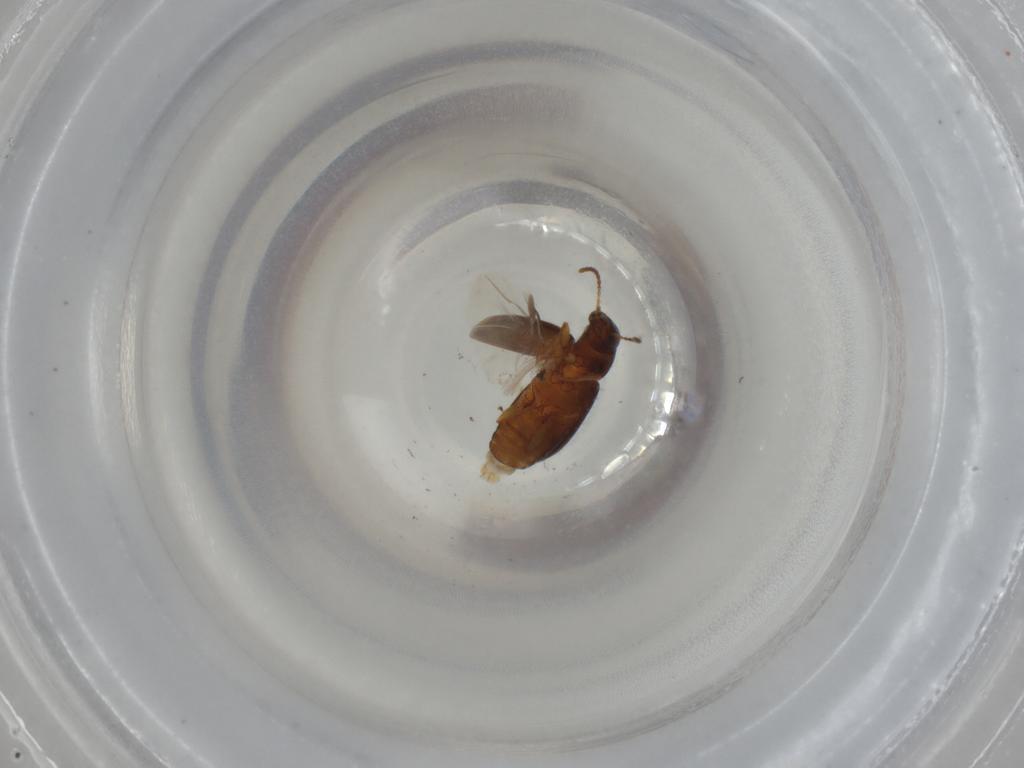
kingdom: Animalia
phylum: Arthropoda
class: Insecta
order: Coleoptera
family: Carabidae
